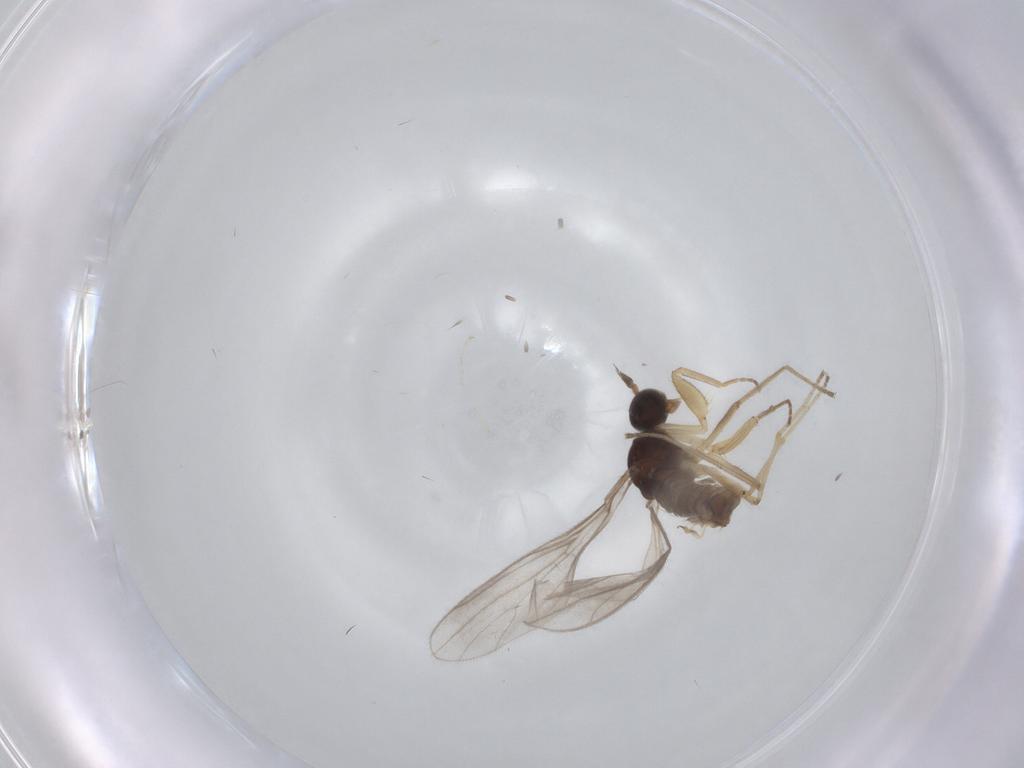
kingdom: Animalia
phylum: Arthropoda
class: Insecta
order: Diptera
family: Empididae
